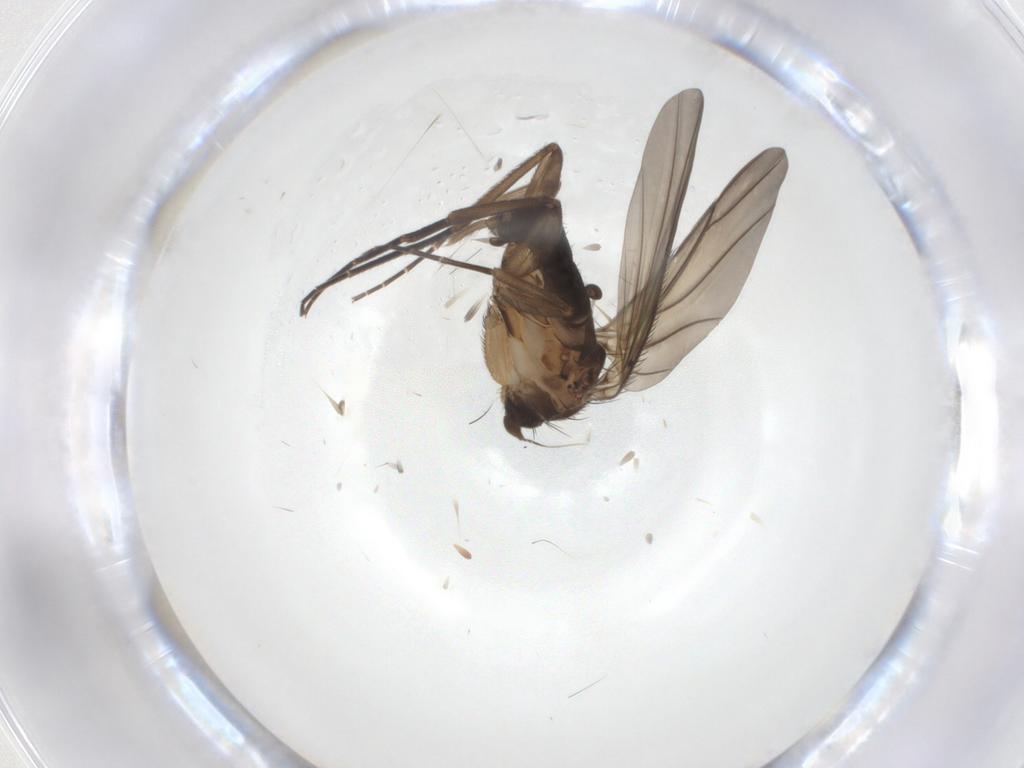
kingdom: Animalia
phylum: Arthropoda
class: Insecta
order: Diptera
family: Phoridae
